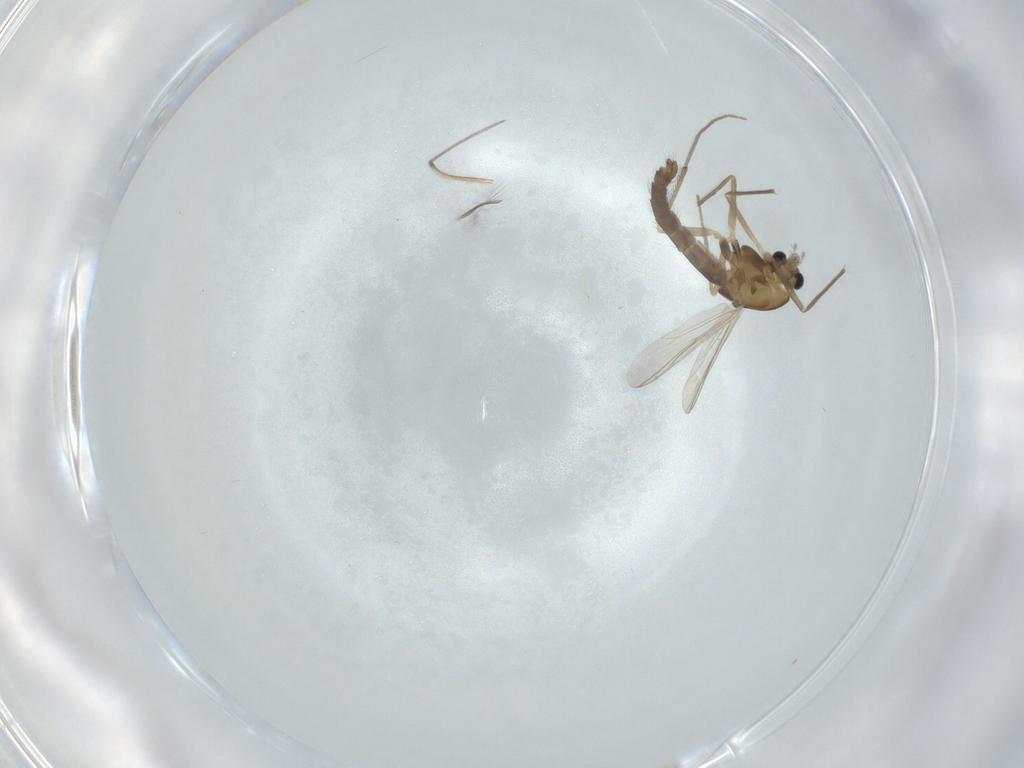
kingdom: Animalia
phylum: Arthropoda
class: Insecta
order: Diptera
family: Chironomidae
